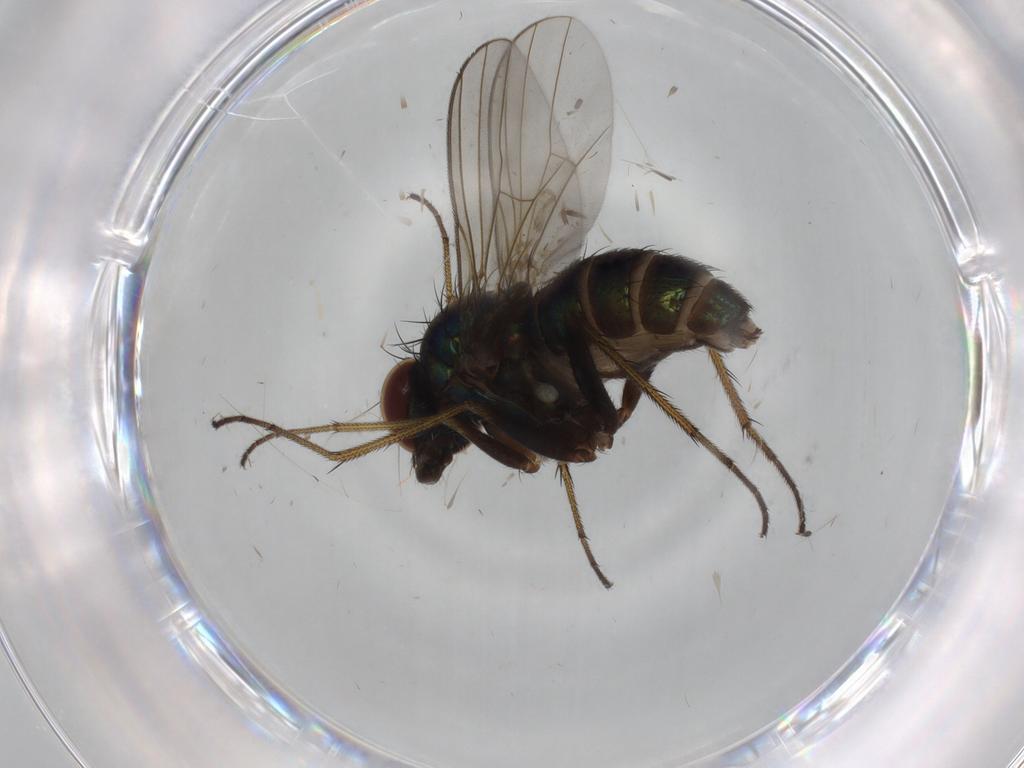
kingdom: Animalia
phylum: Arthropoda
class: Insecta
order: Diptera
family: Dolichopodidae
